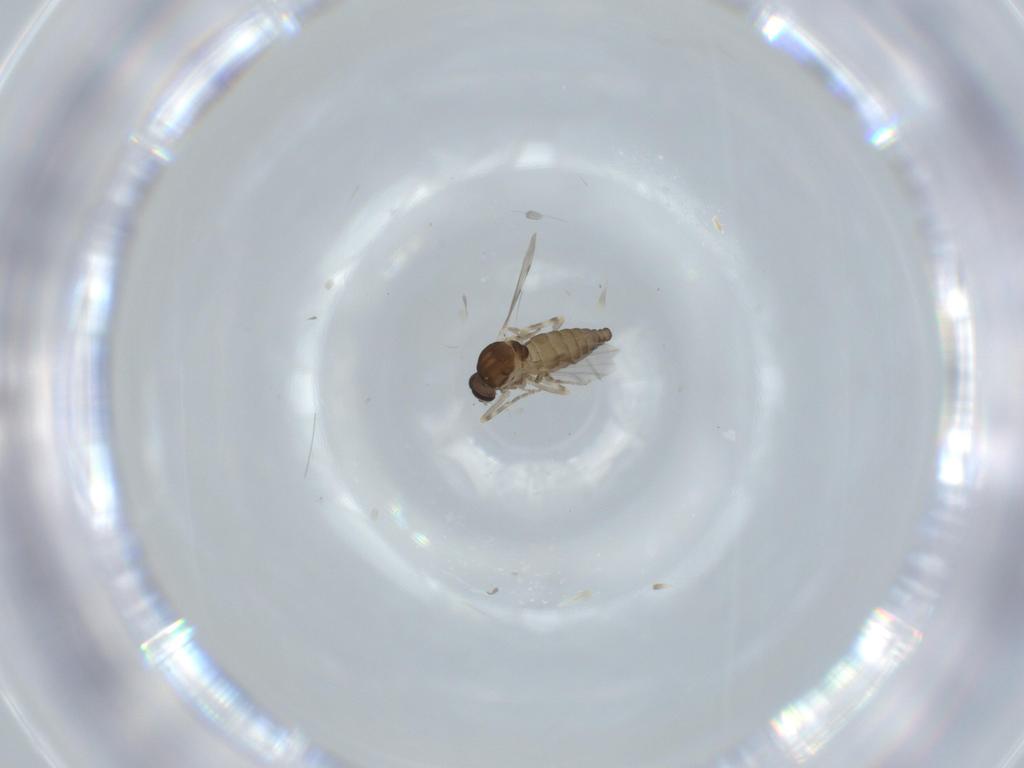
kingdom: Animalia
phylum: Arthropoda
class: Insecta
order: Diptera
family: Ceratopogonidae
